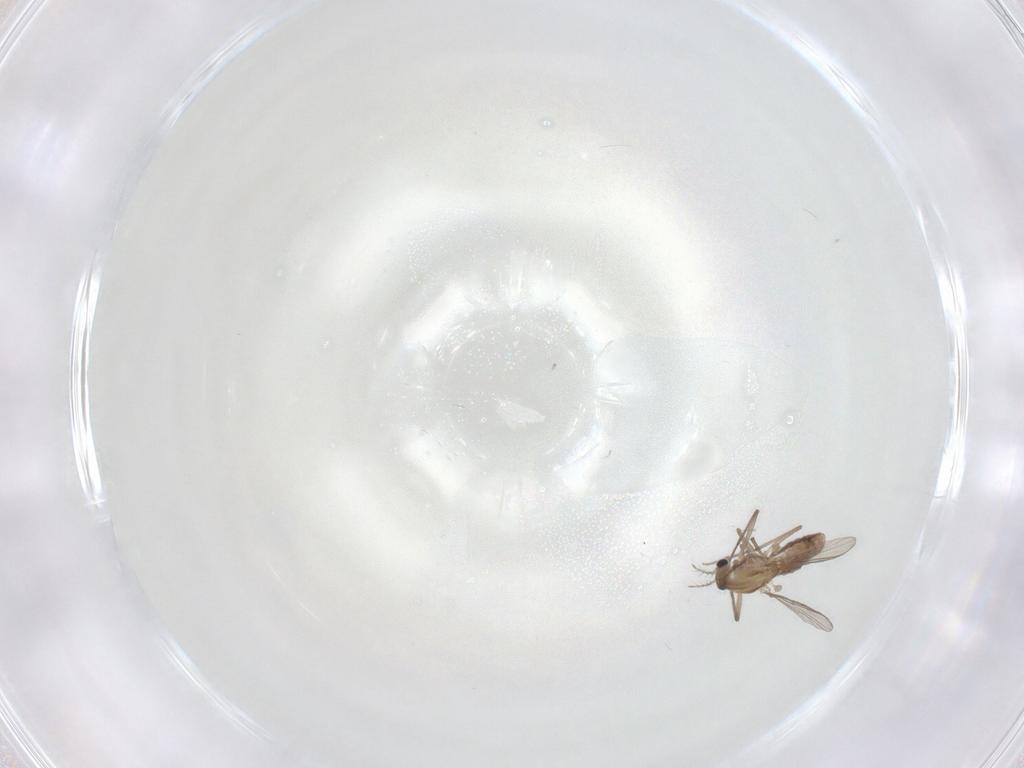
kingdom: Animalia
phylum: Arthropoda
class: Insecta
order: Diptera
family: Chironomidae
